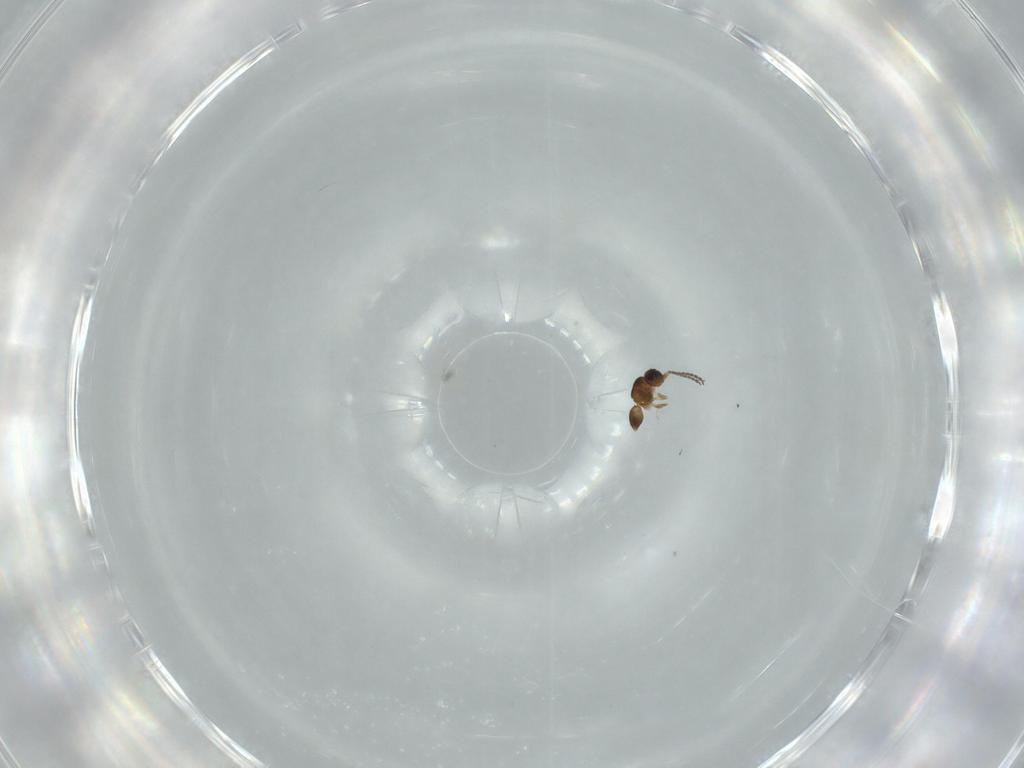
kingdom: Animalia
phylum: Arthropoda
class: Insecta
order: Hymenoptera
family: Ceraphronidae
